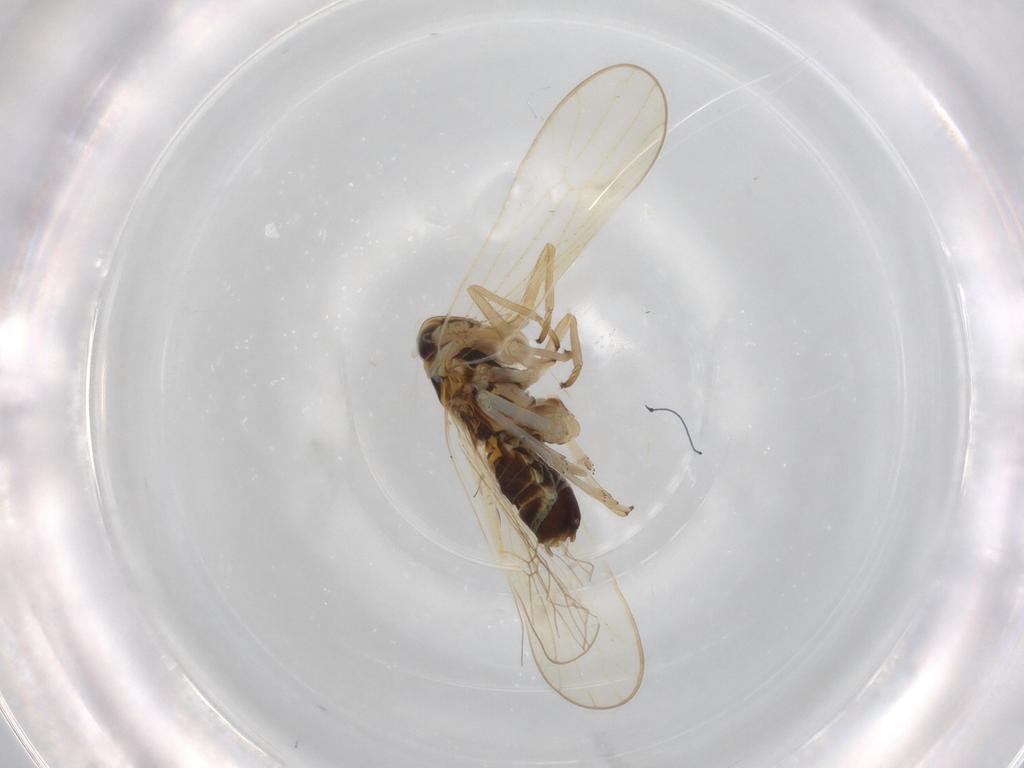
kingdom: Animalia
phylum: Arthropoda
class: Insecta
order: Hemiptera
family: Delphacidae
